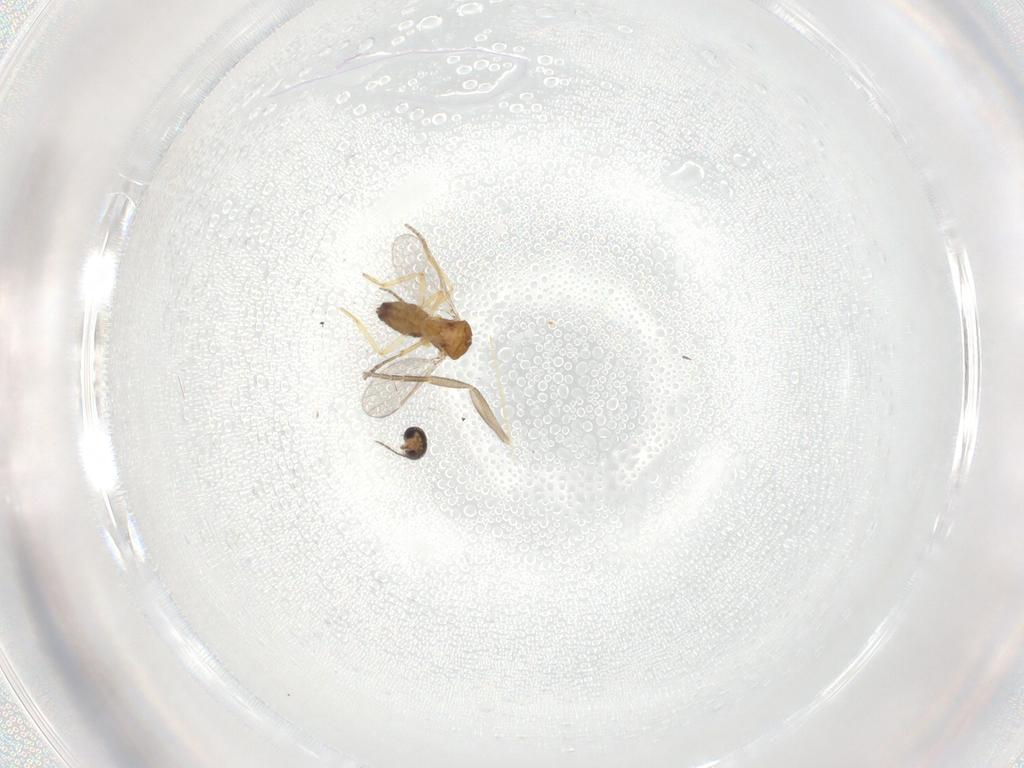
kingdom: Animalia
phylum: Arthropoda
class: Insecta
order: Diptera
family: Ceratopogonidae
